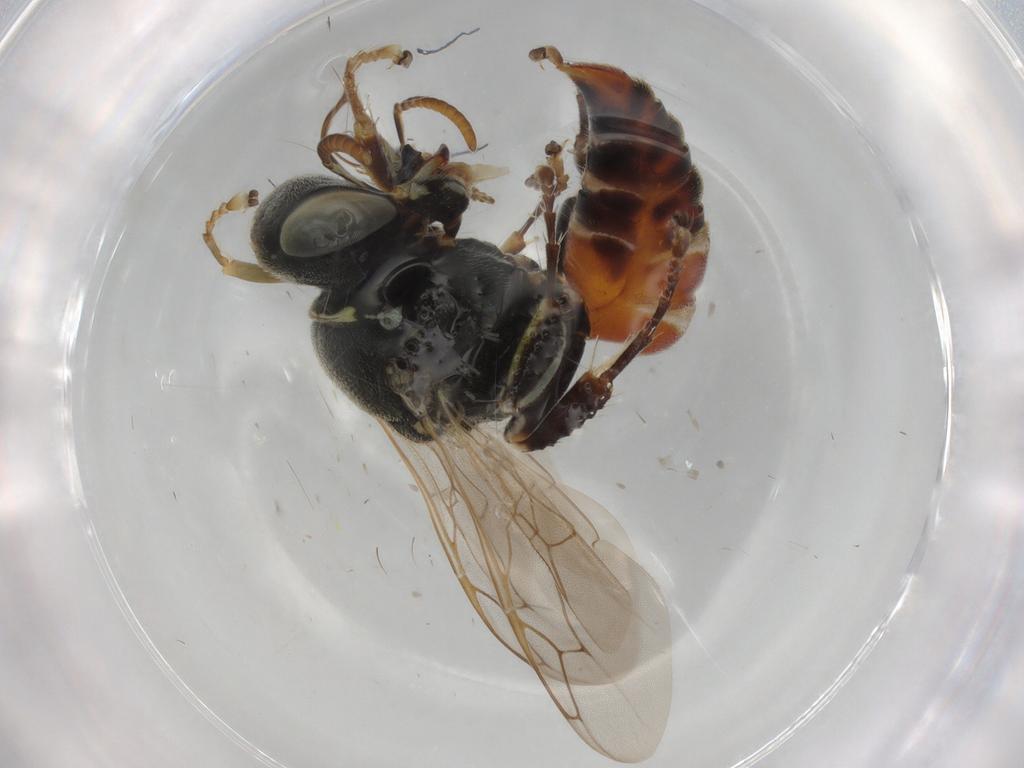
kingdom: Animalia
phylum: Arthropoda
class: Insecta
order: Hymenoptera
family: Crabronidae
